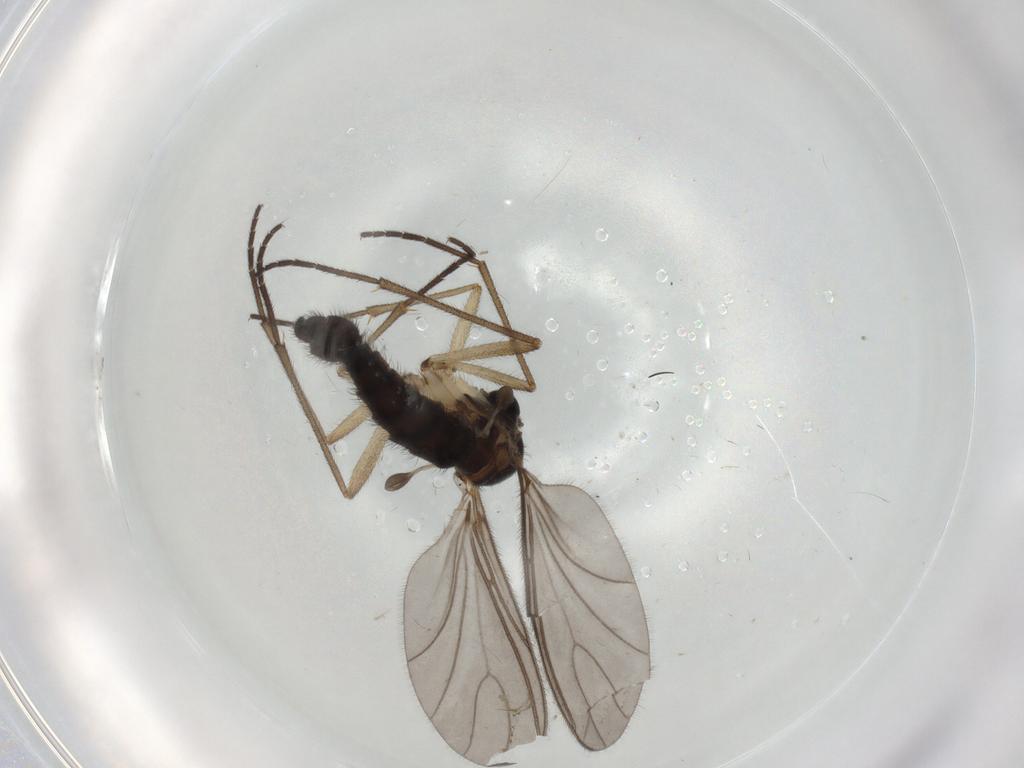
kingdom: Animalia
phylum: Arthropoda
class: Insecta
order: Diptera
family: Sciaridae
